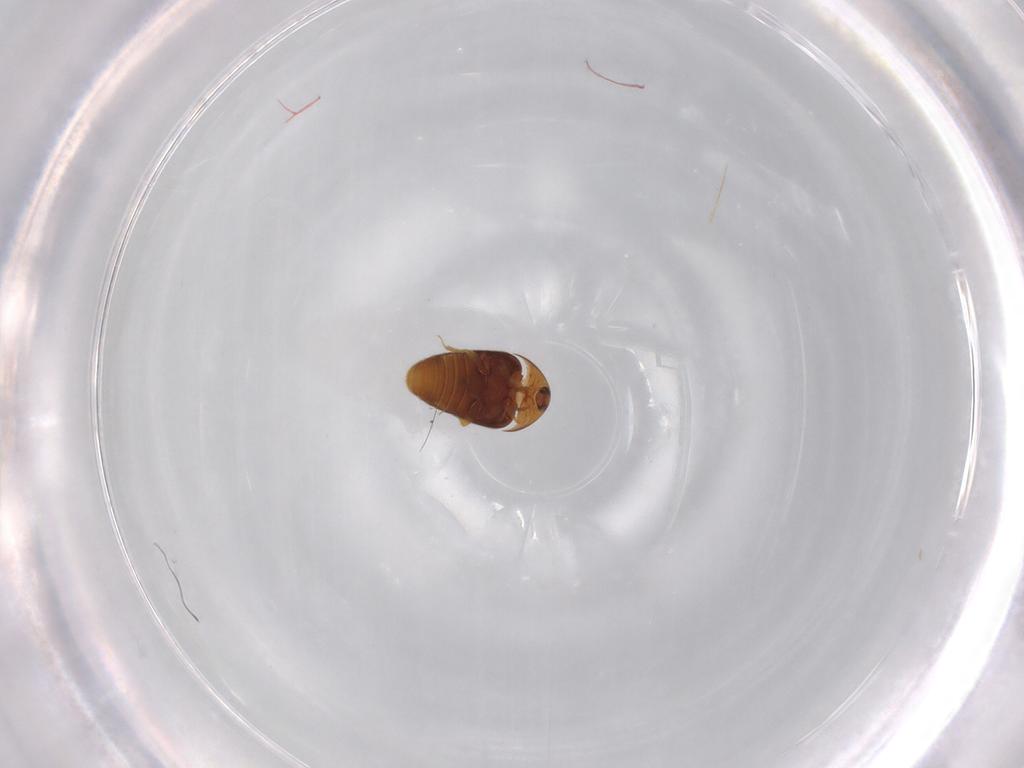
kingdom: Animalia
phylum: Arthropoda
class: Insecta
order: Coleoptera
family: Corylophidae
